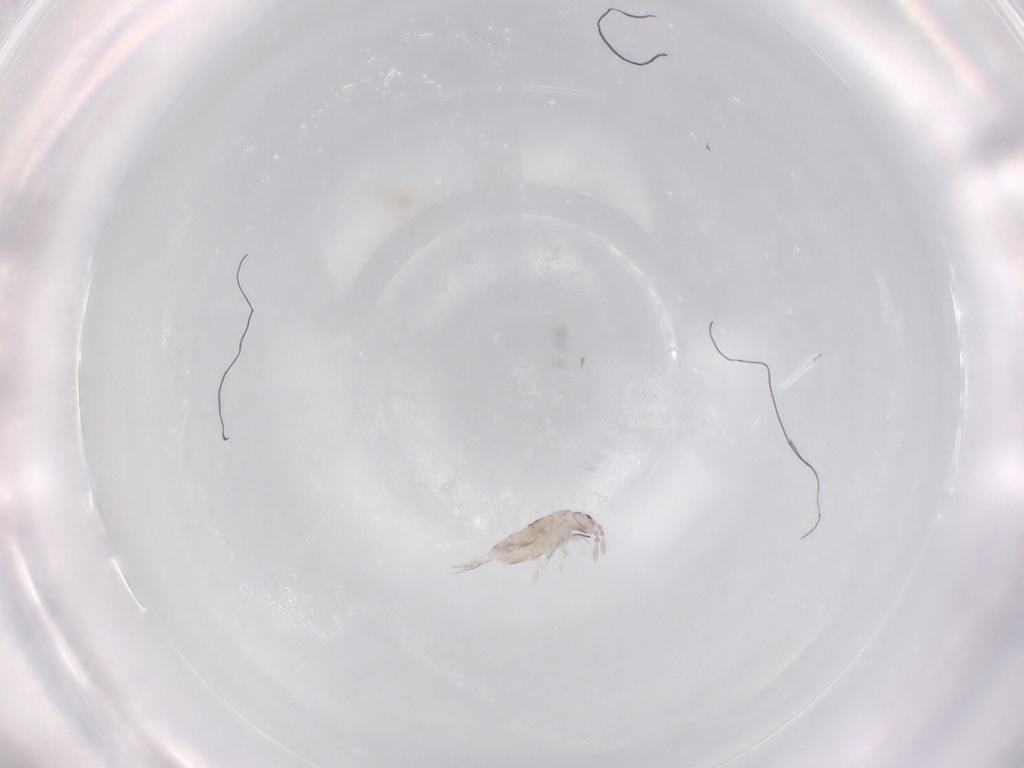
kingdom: Animalia
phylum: Arthropoda
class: Collembola
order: Entomobryomorpha
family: Entomobryidae
